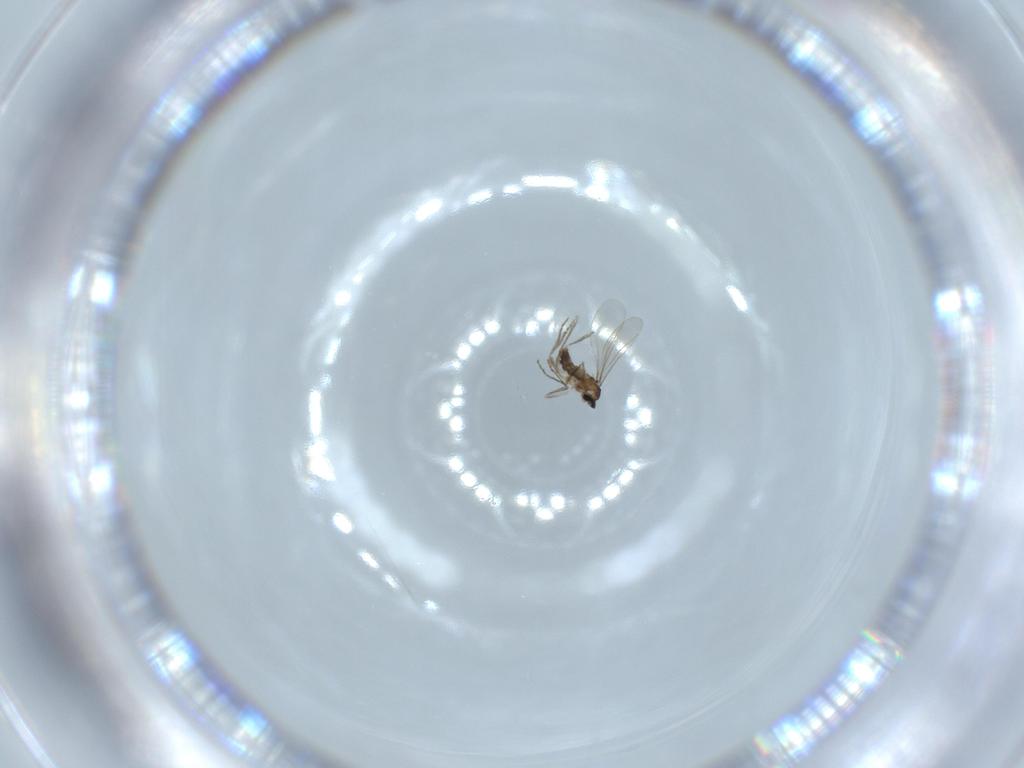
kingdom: Animalia
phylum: Arthropoda
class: Insecta
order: Diptera
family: Cecidomyiidae
